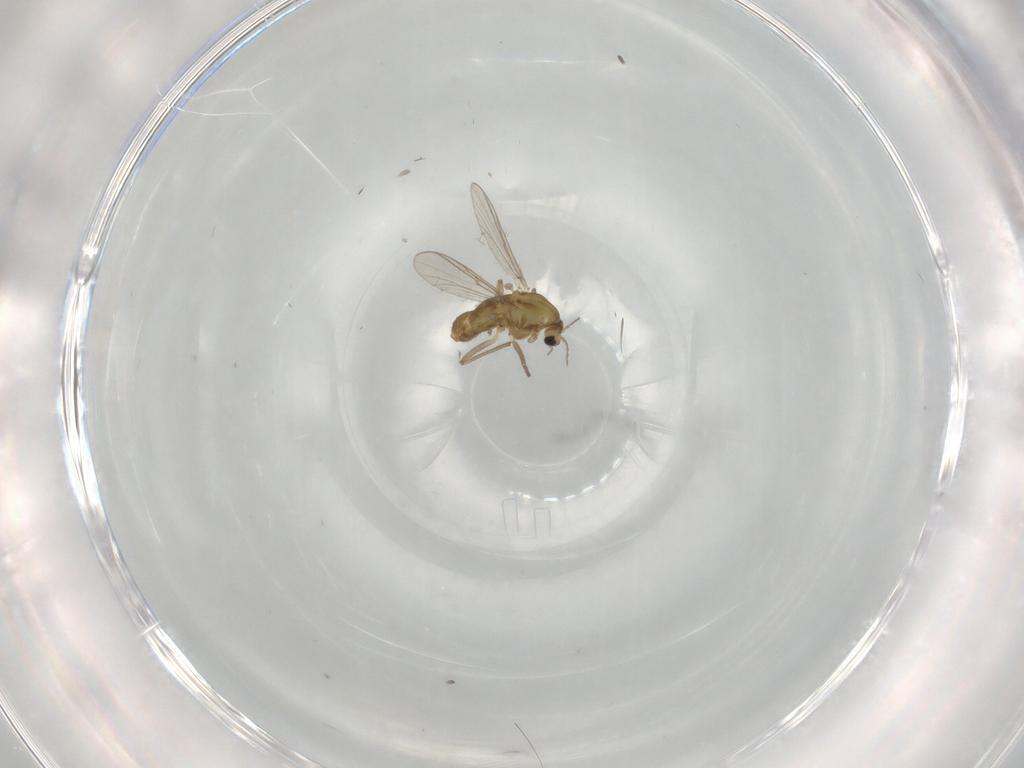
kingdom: Animalia
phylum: Arthropoda
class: Insecta
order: Diptera
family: Chironomidae
